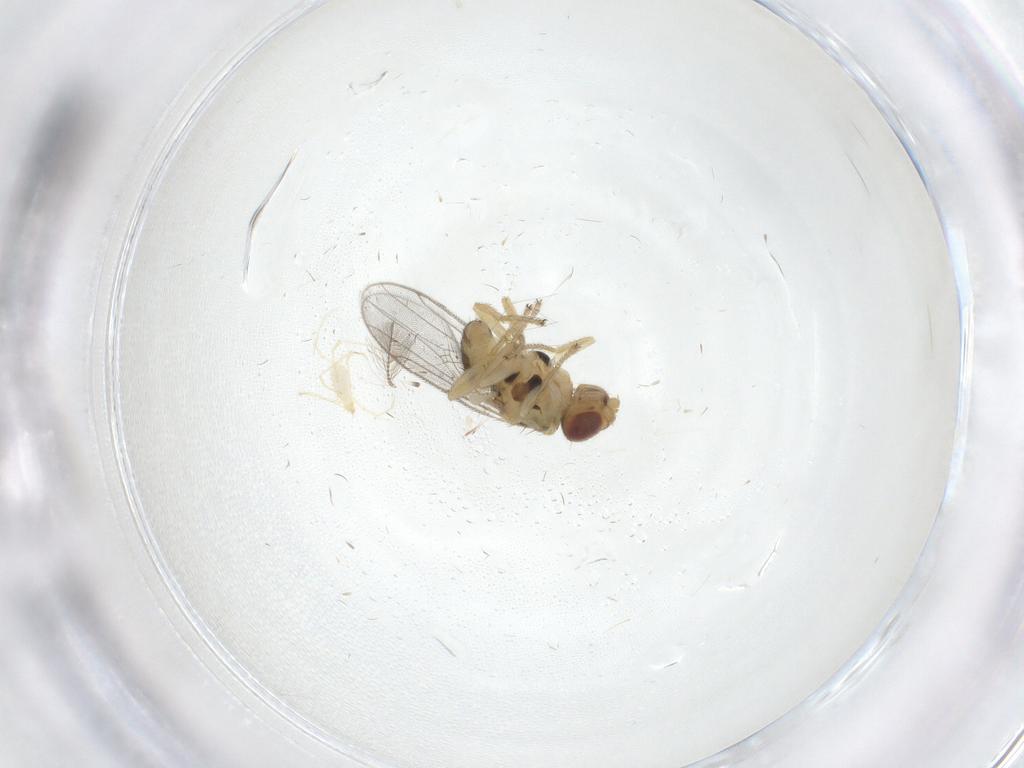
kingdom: Animalia
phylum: Arthropoda
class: Insecta
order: Diptera
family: Chloropidae
